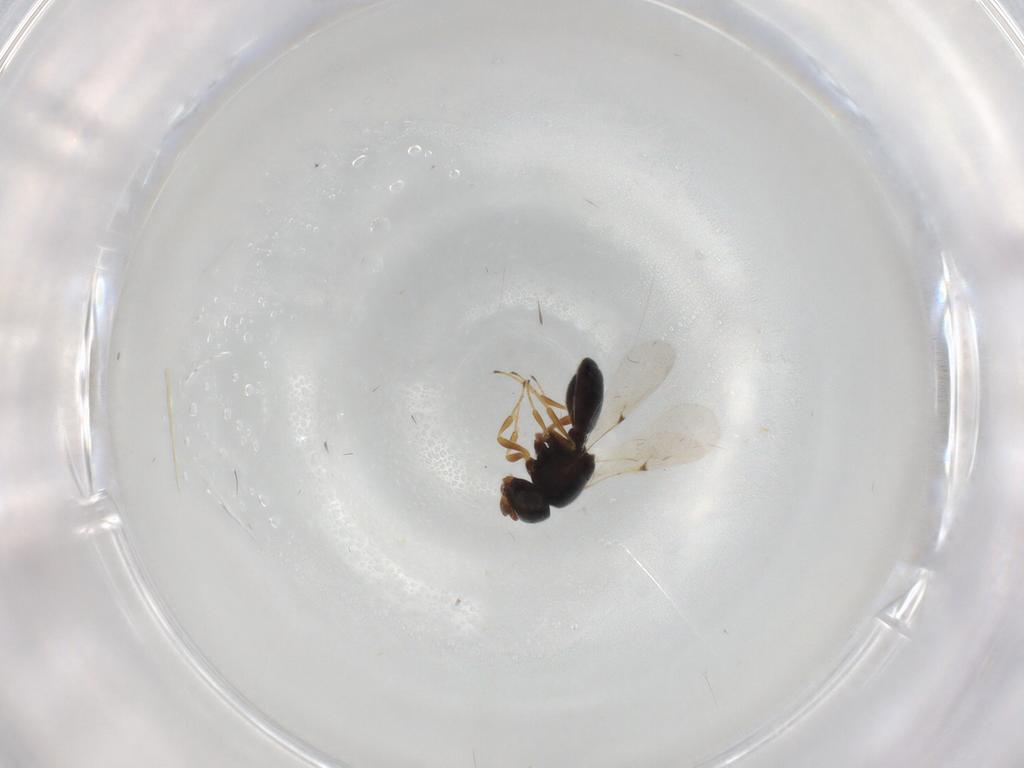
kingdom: Animalia
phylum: Arthropoda
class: Insecta
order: Hymenoptera
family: Scelionidae
